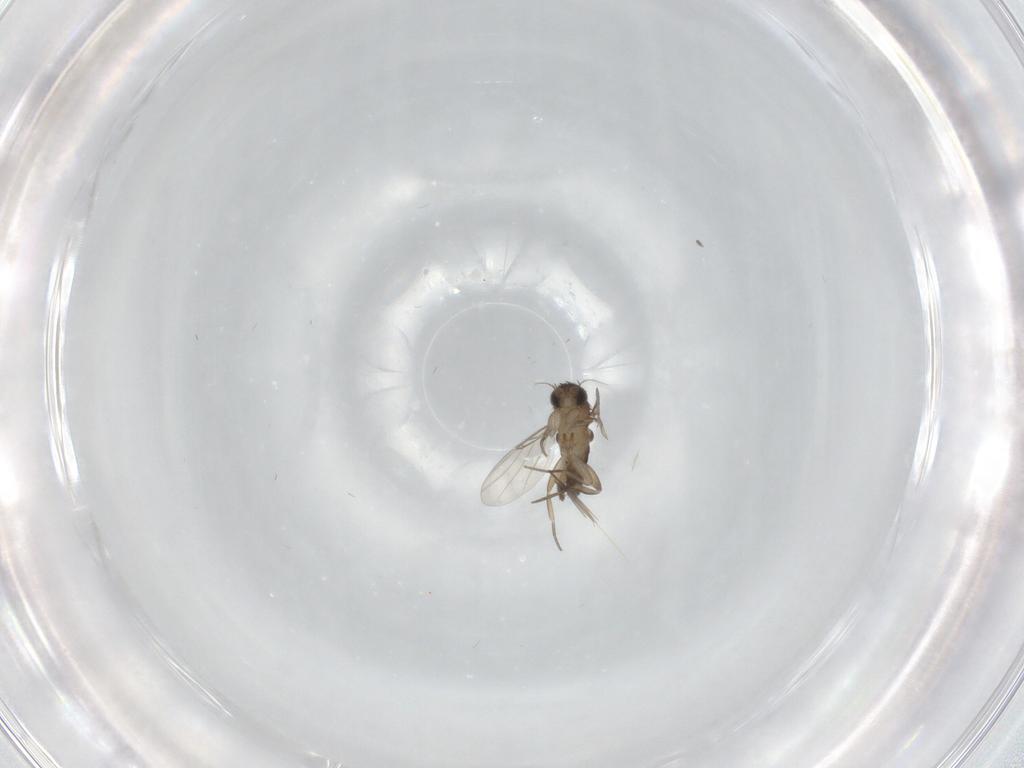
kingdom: Animalia
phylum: Arthropoda
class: Insecta
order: Diptera
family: Phoridae
